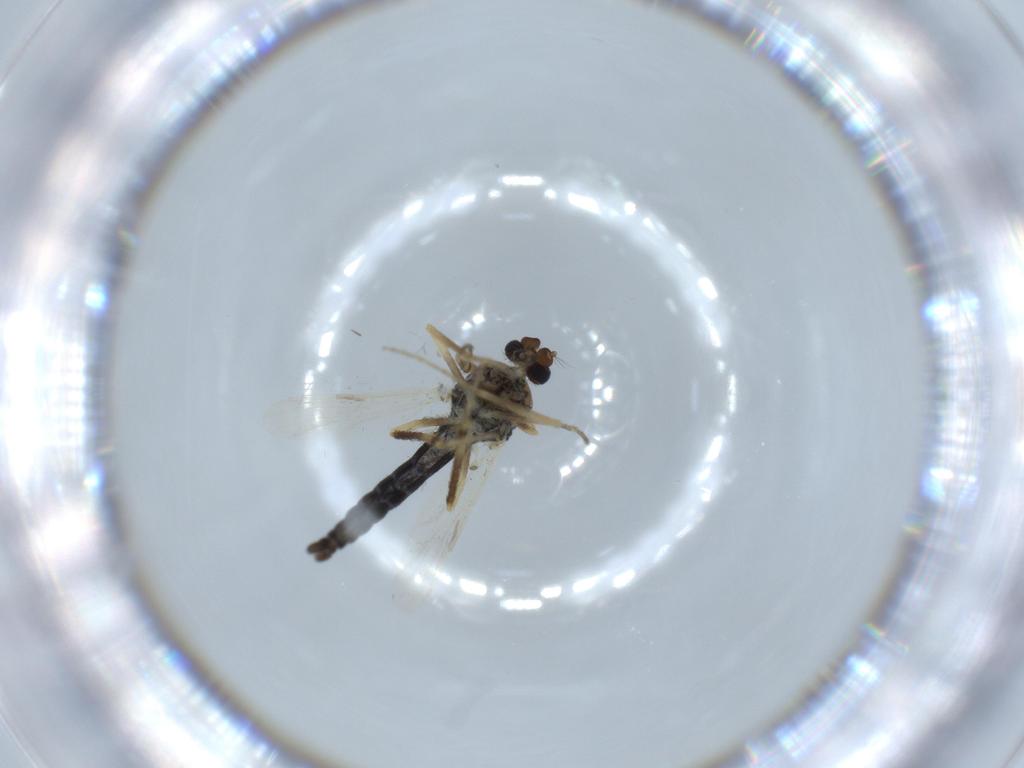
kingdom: Animalia
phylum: Arthropoda
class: Insecta
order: Diptera
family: Ceratopogonidae
